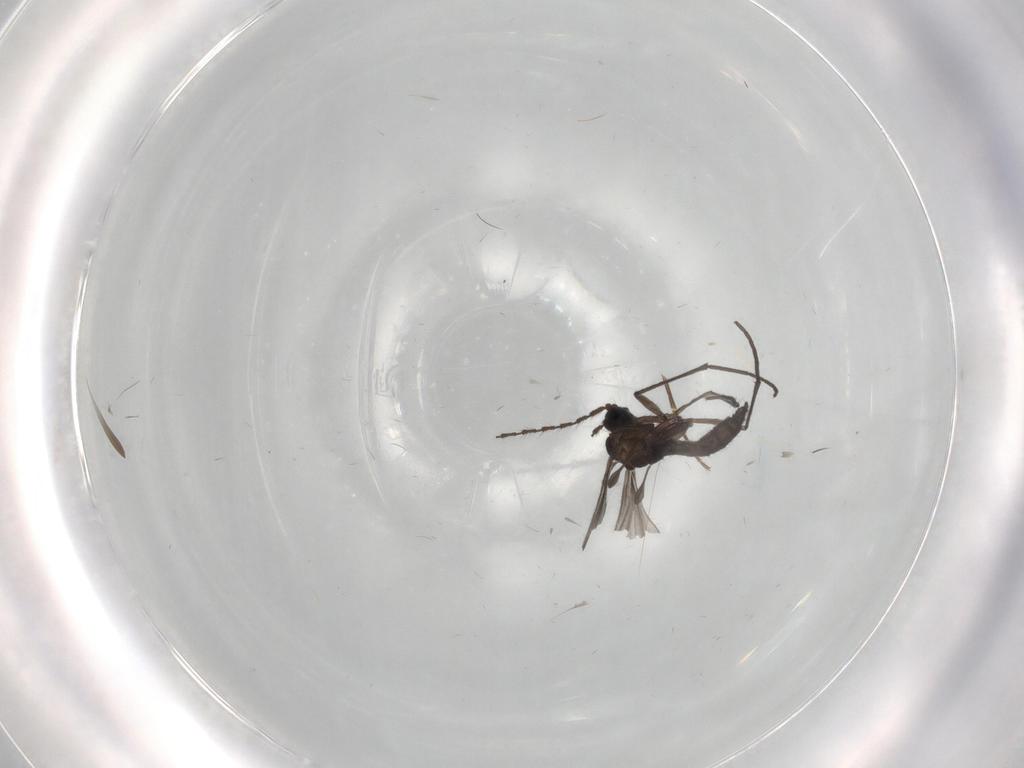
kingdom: Animalia
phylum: Arthropoda
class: Insecta
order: Diptera
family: Sciaridae
